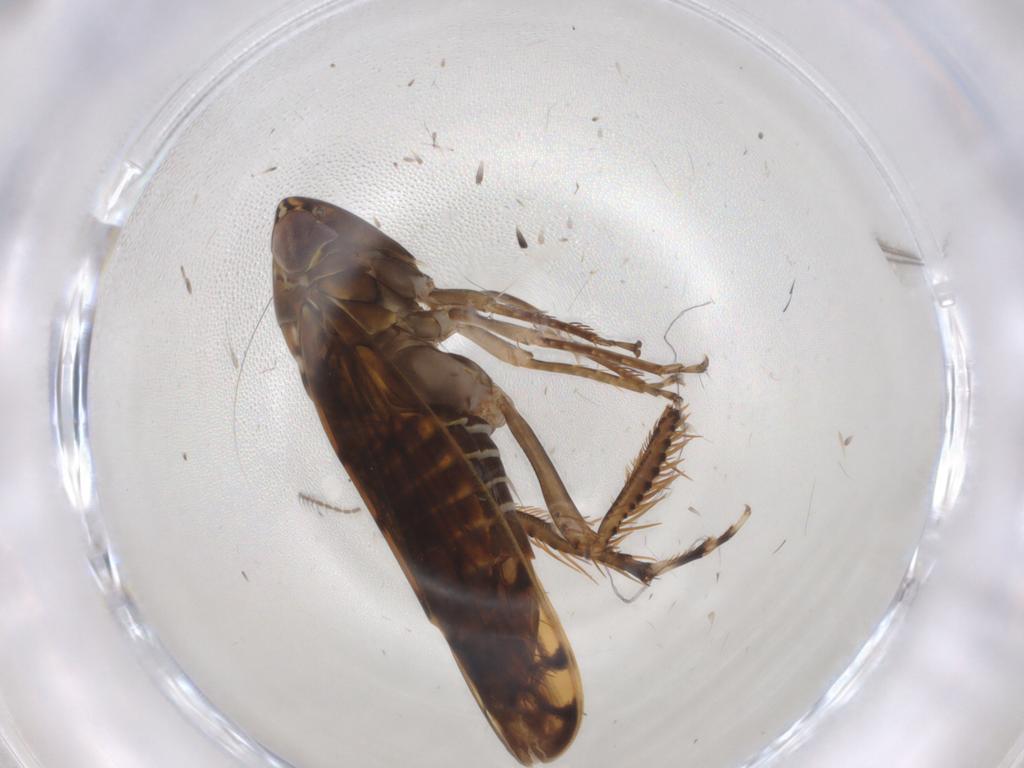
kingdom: Animalia
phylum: Arthropoda
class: Insecta
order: Hemiptera
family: Cicadellidae
